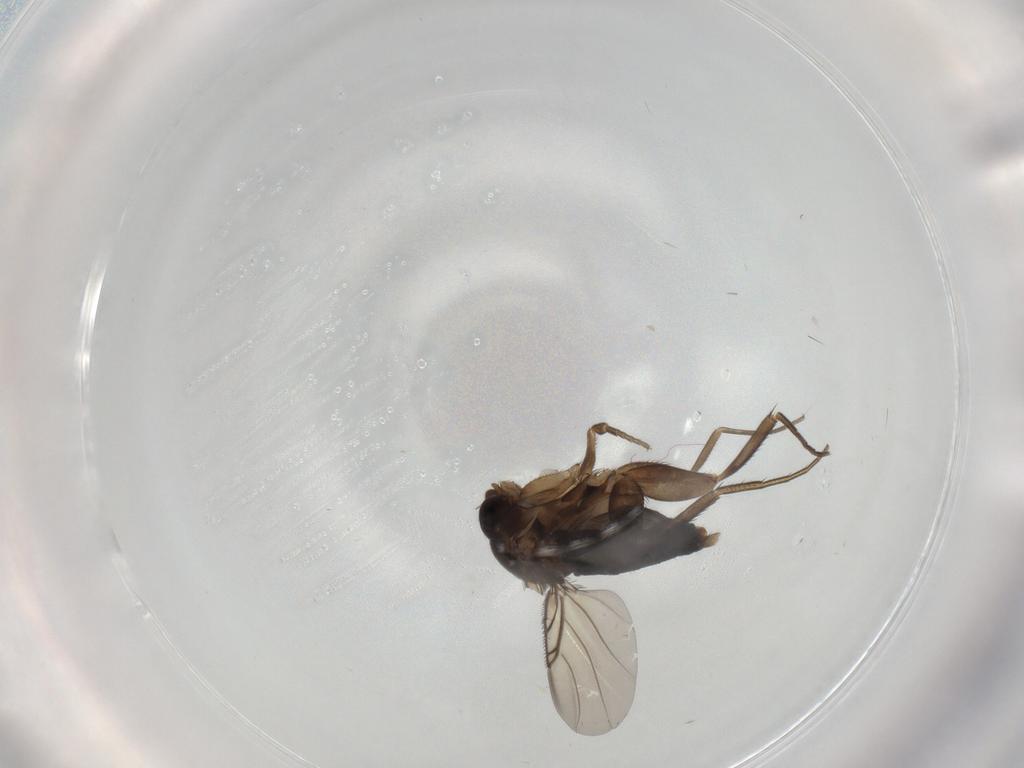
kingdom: Animalia
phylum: Arthropoda
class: Insecta
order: Diptera
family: Phoridae
